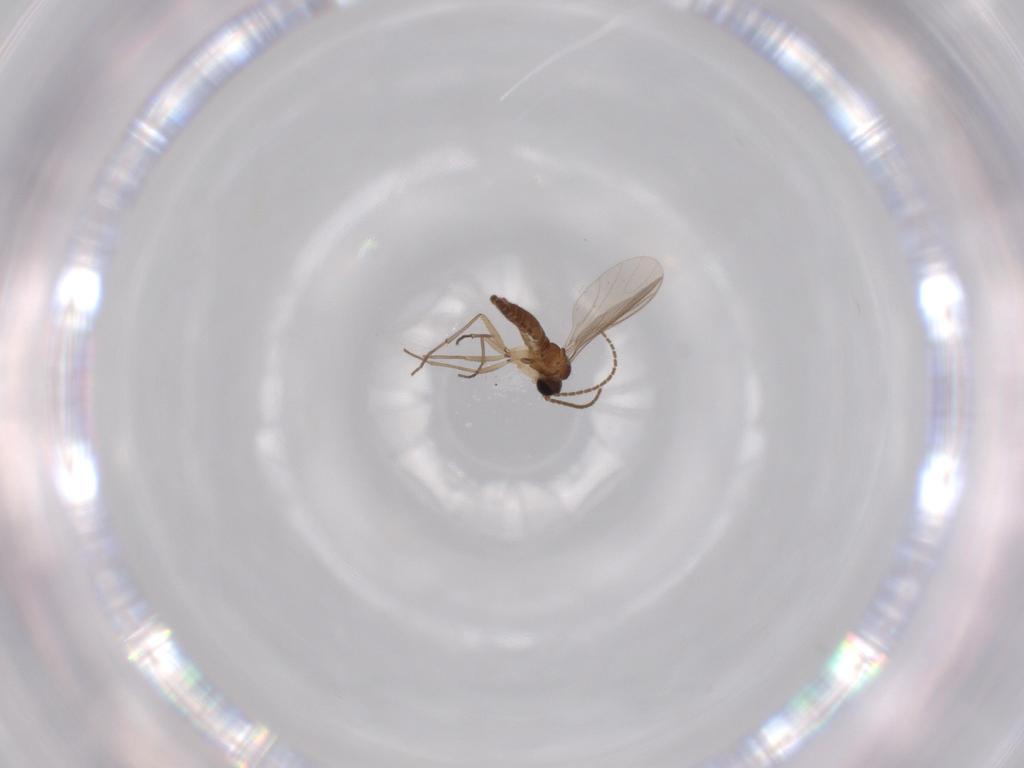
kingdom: Animalia
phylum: Arthropoda
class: Insecta
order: Diptera
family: Sciaridae
